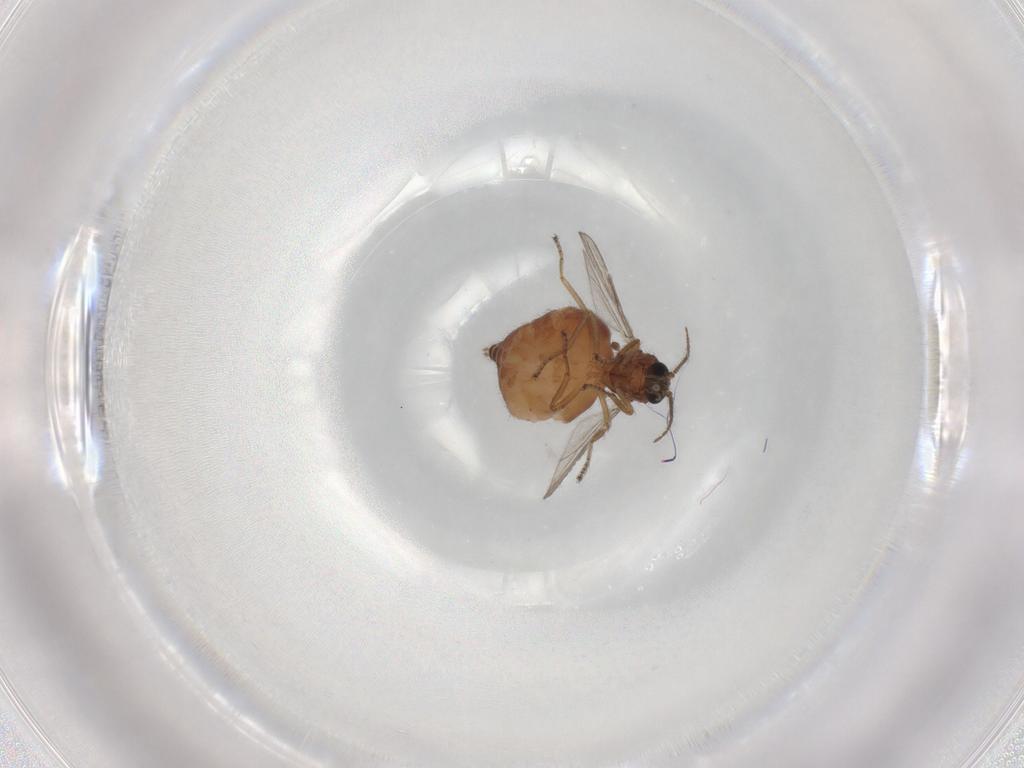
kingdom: Animalia
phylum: Arthropoda
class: Insecta
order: Diptera
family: Ceratopogonidae
